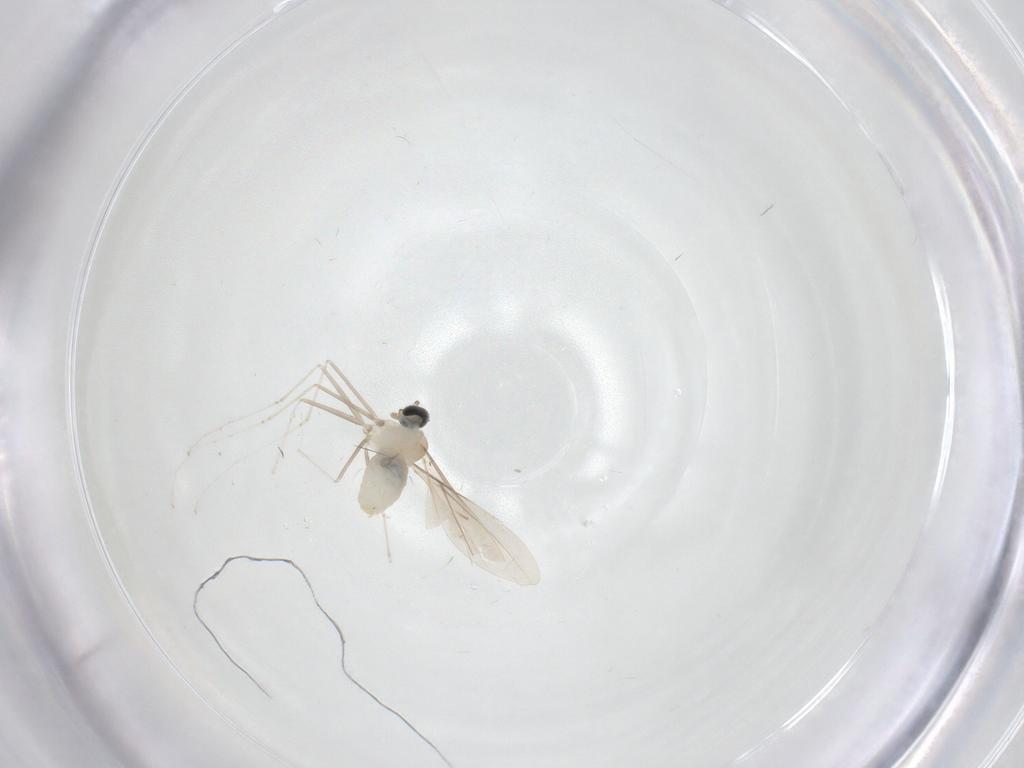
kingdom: Animalia
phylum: Arthropoda
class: Insecta
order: Diptera
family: Cecidomyiidae
